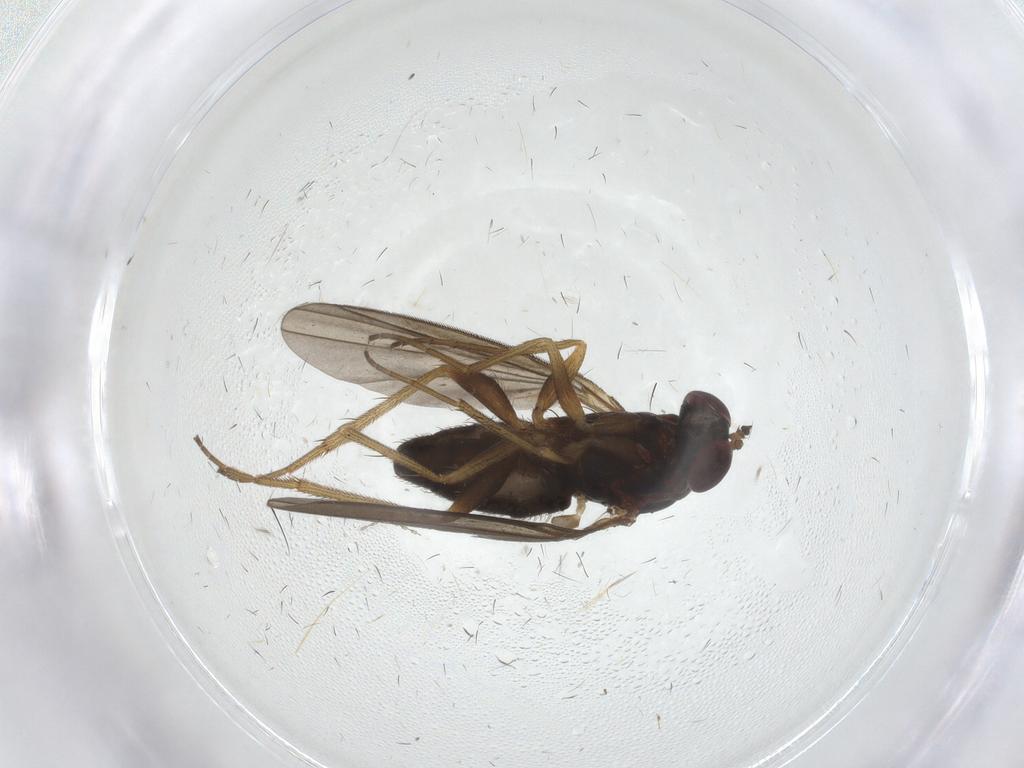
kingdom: Animalia
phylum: Arthropoda
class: Insecta
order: Diptera
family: Dolichopodidae
